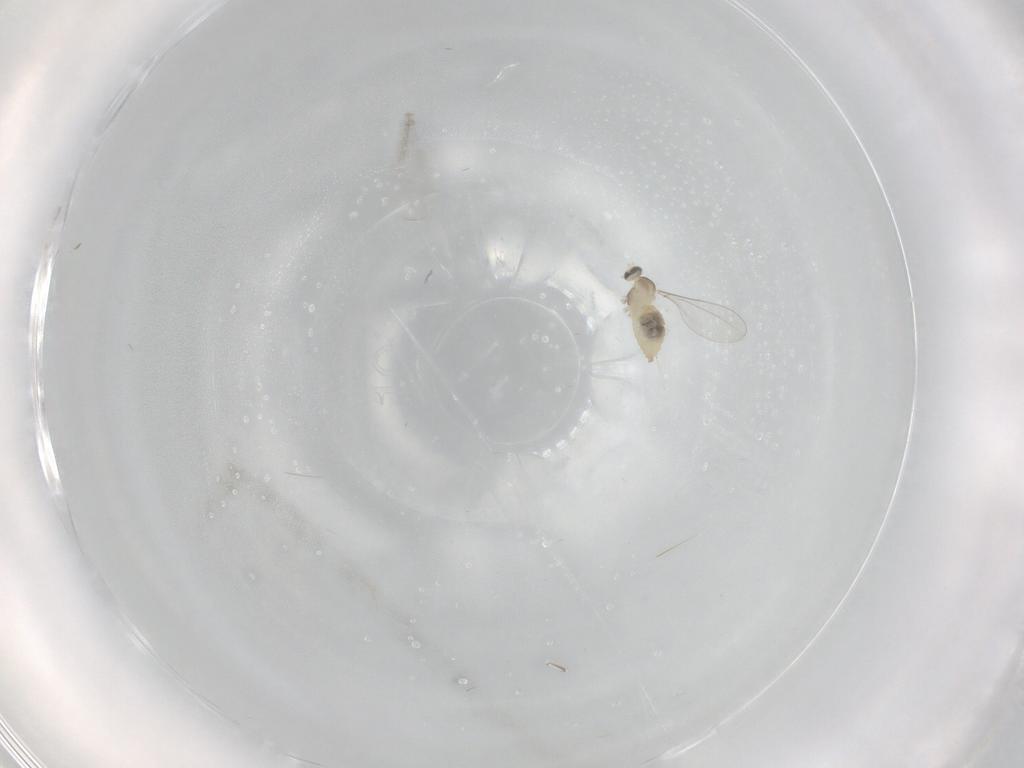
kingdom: Animalia
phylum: Arthropoda
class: Insecta
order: Diptera
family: Cecidomyiidae
